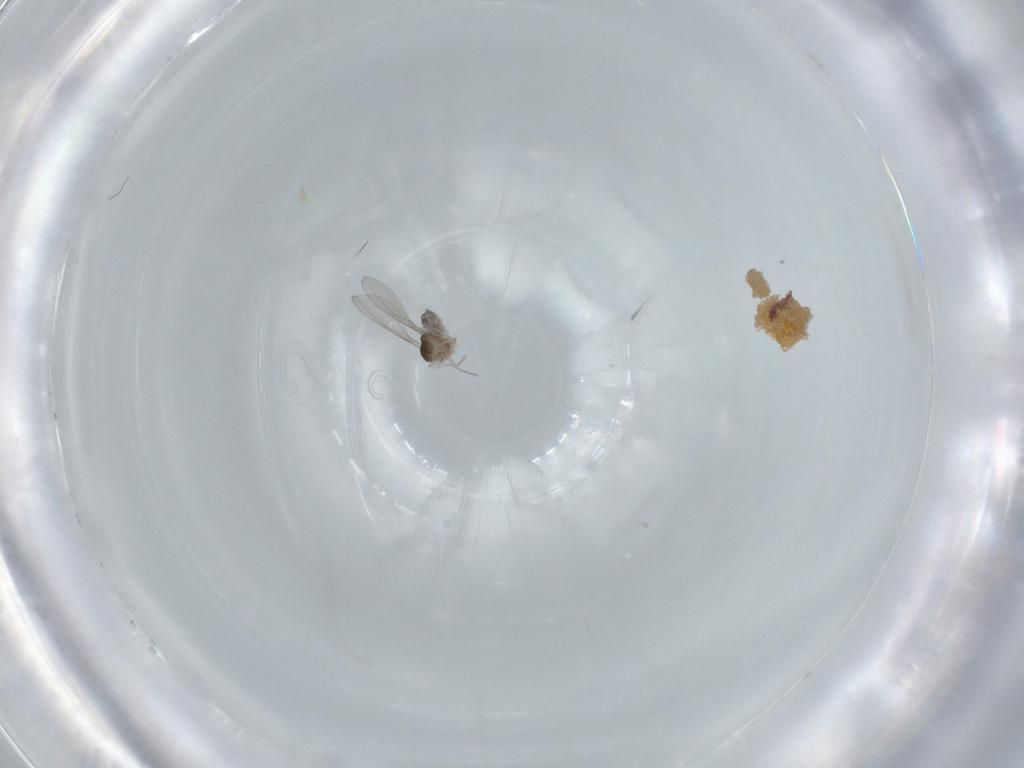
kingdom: Animalia
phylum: Arthropoda
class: Insecta
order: Diptera
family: Cecidomyiidae
